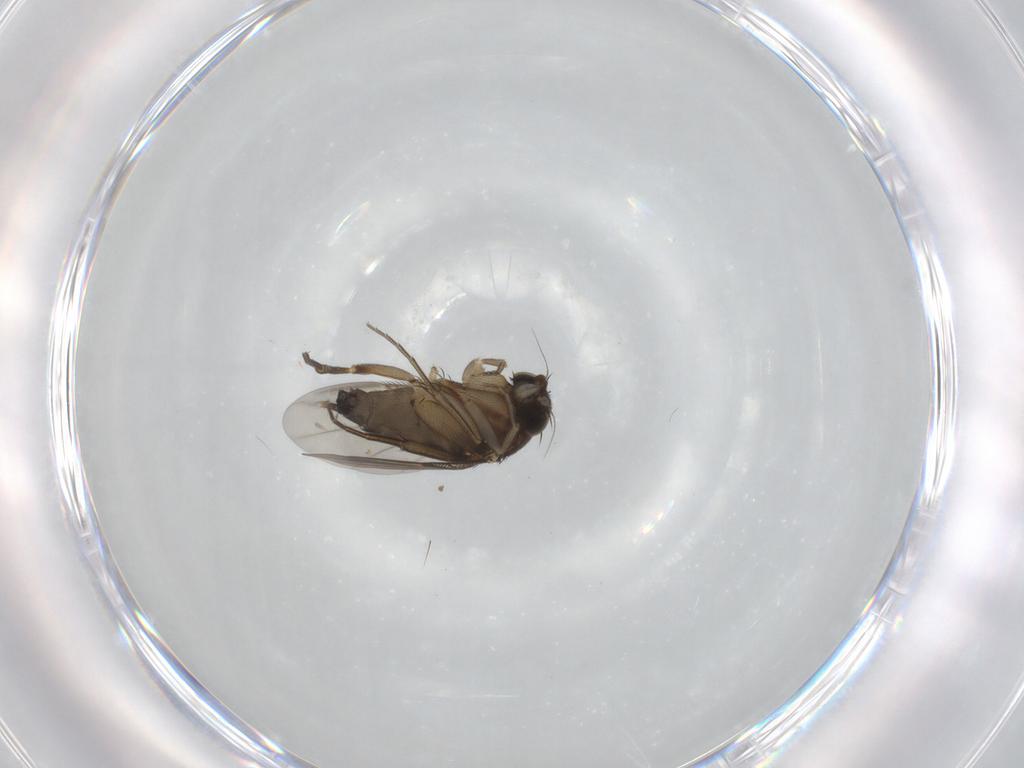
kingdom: Animalia
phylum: Arthropoda
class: Insecta
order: Diptera
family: Phoridae
